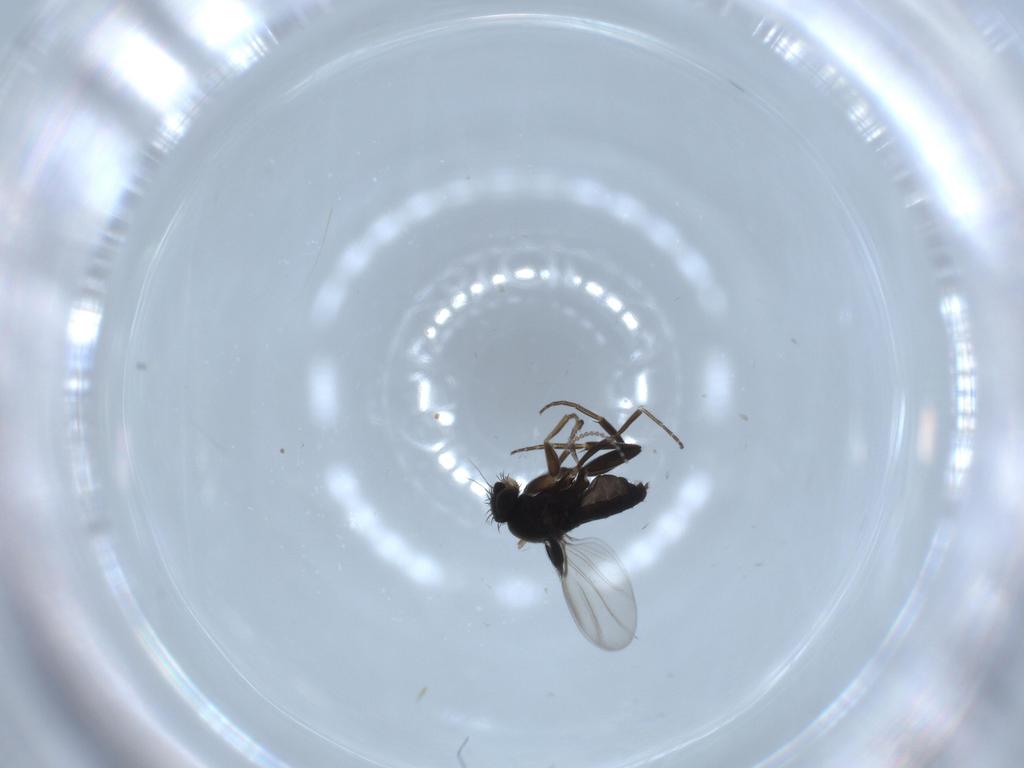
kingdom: Animalia
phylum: Arthropoda
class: Insecta
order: Diptera
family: Phoridae
